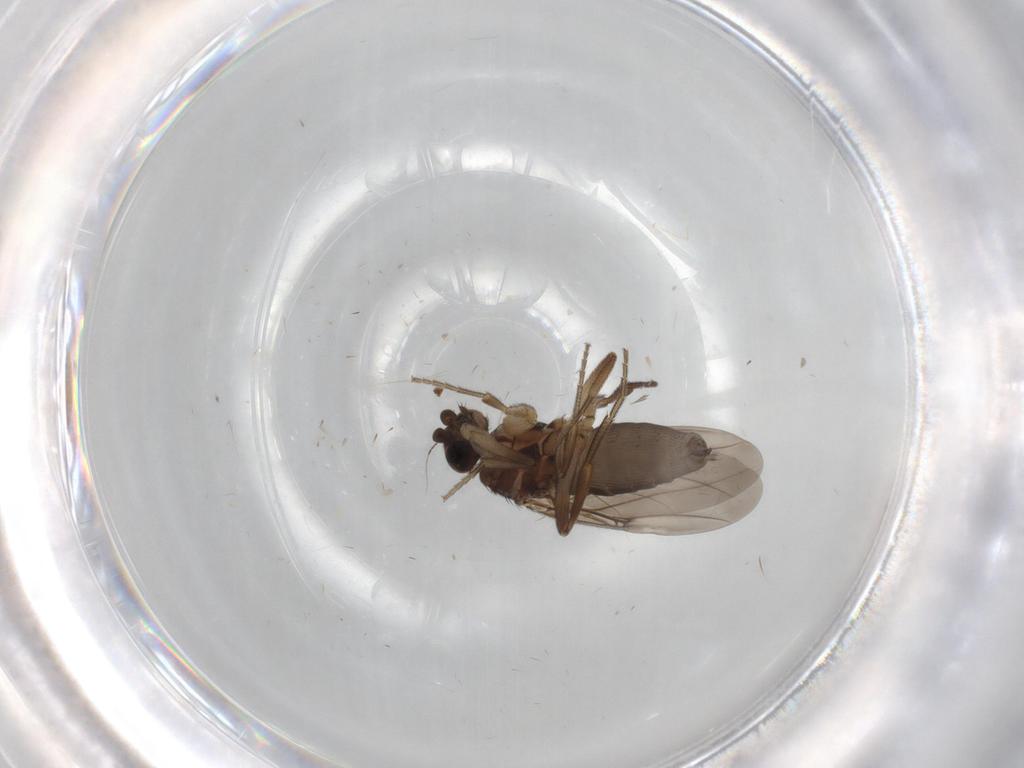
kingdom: Animalia
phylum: Arthropoda
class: Insecta
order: Diptera
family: Phoridae
